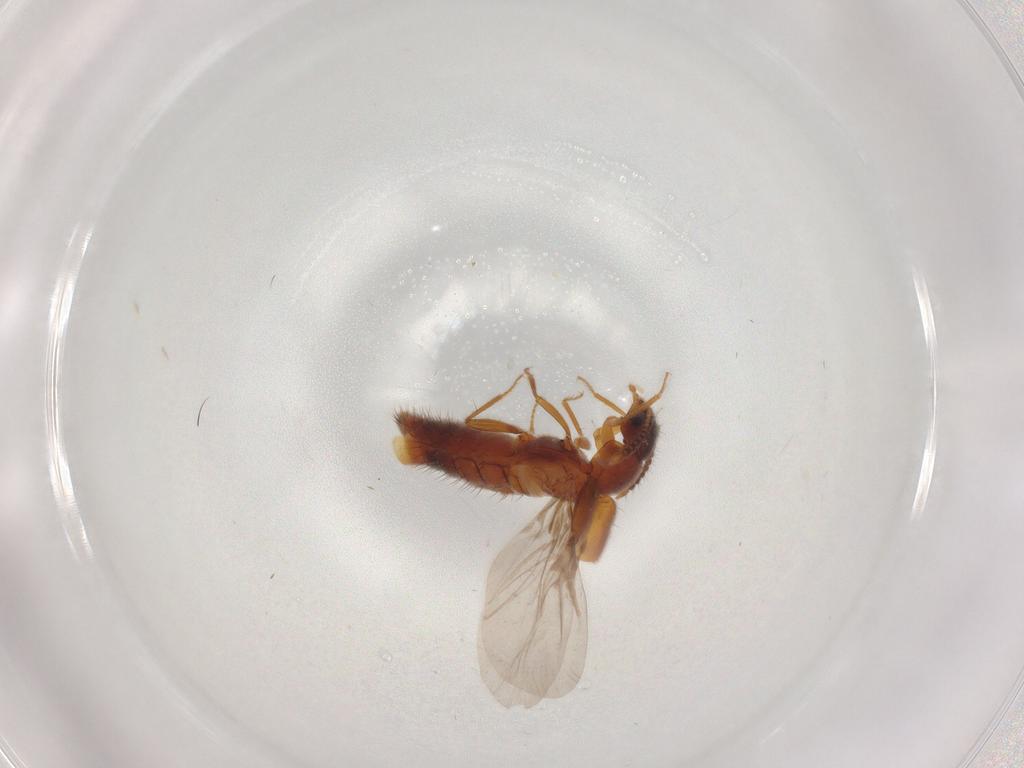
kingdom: Animalia
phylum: Arthropoda
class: Insecta
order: Coleoptera
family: Staphylinidae
